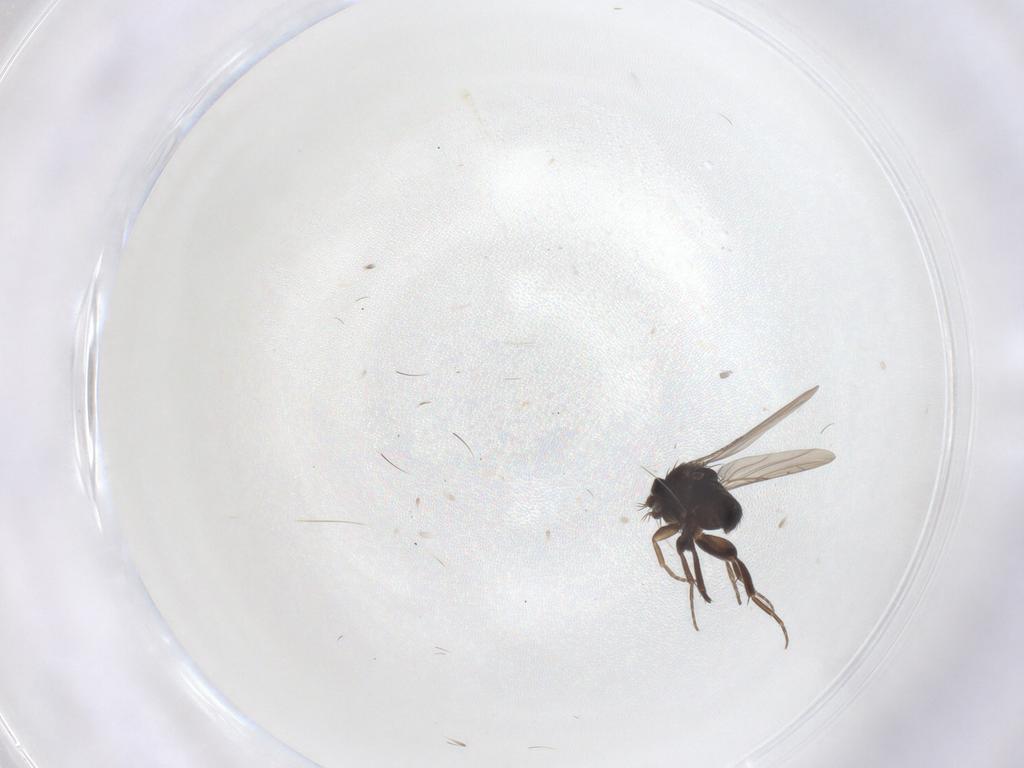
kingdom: Animalia
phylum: Arthropoda
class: Insecta
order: Diptera
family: Phoridae
